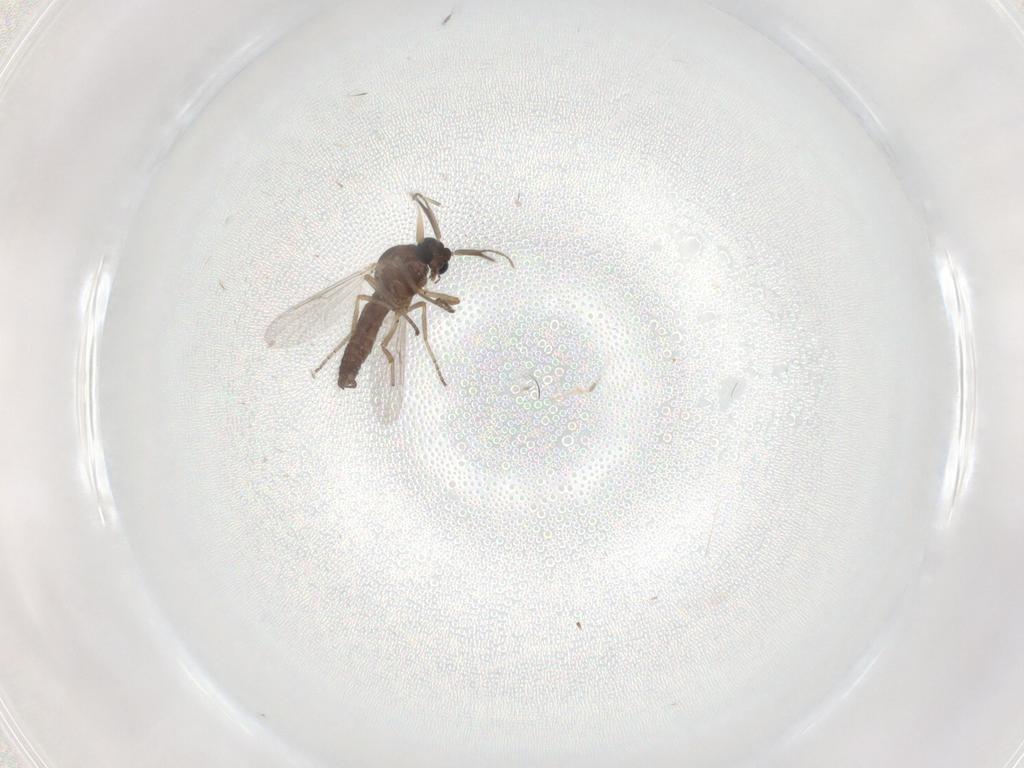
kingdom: Animalia
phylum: Arthropoda
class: Insecta
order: Diptera
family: Ceratopogonidae
